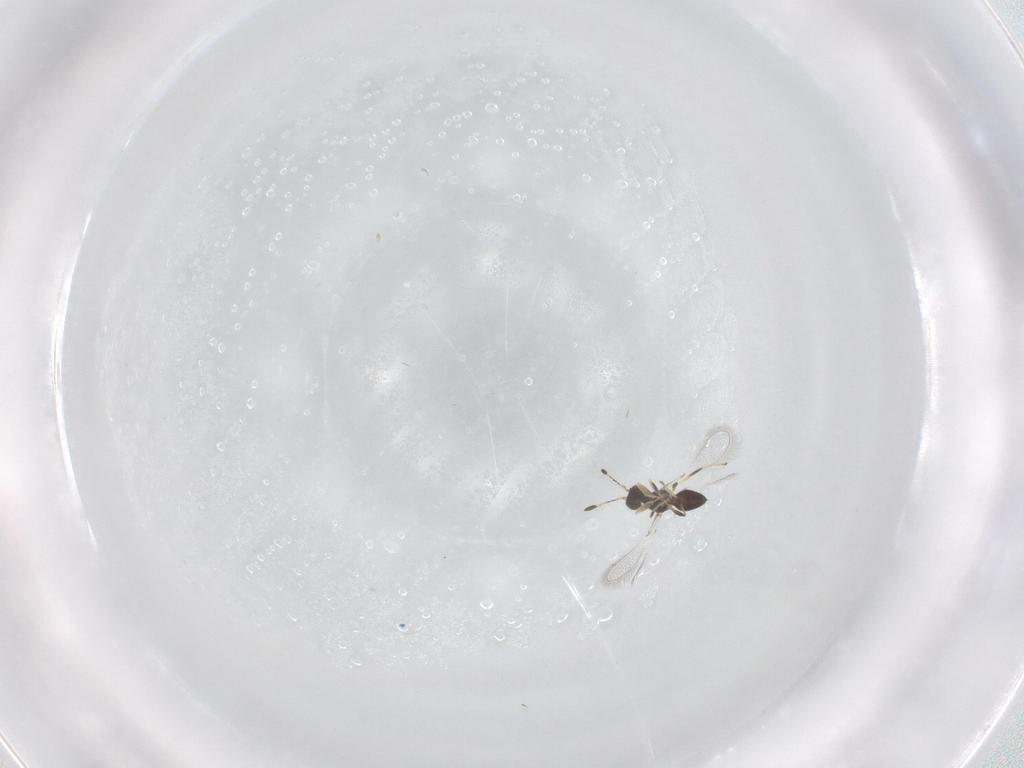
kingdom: Animalia
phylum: Arthropoda
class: Insecta
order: Hymenoptera
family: Mymaridae
